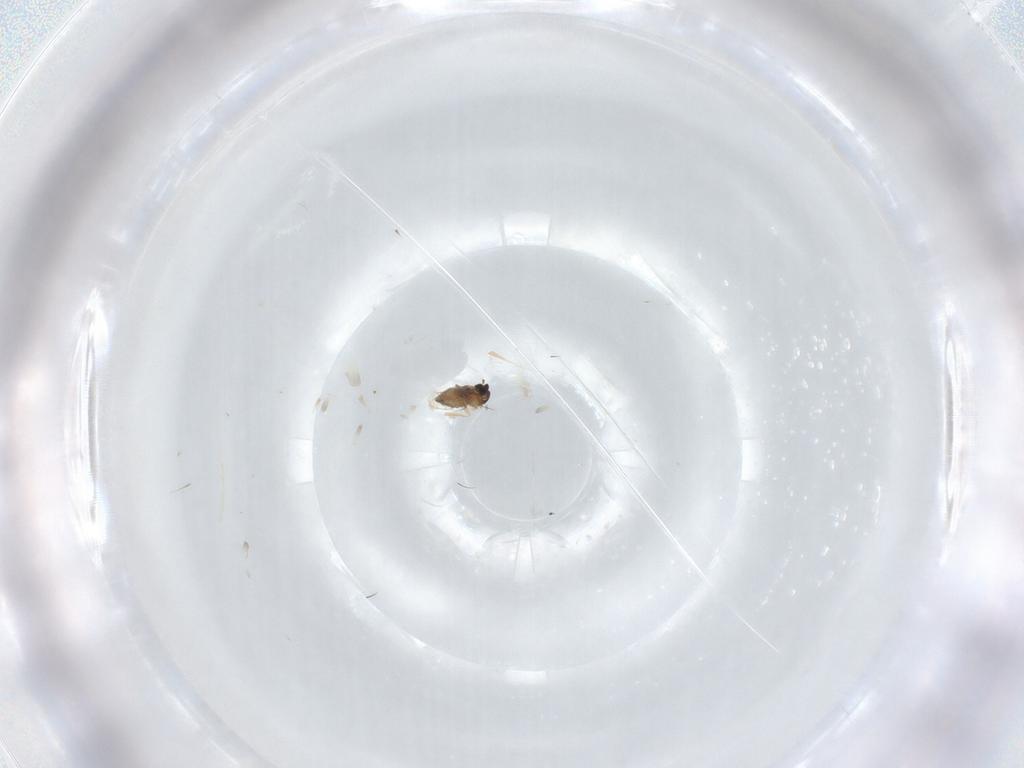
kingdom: Animalia
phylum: Arthropoda
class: Insecta
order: Diptera
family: Cecidomyiidae
